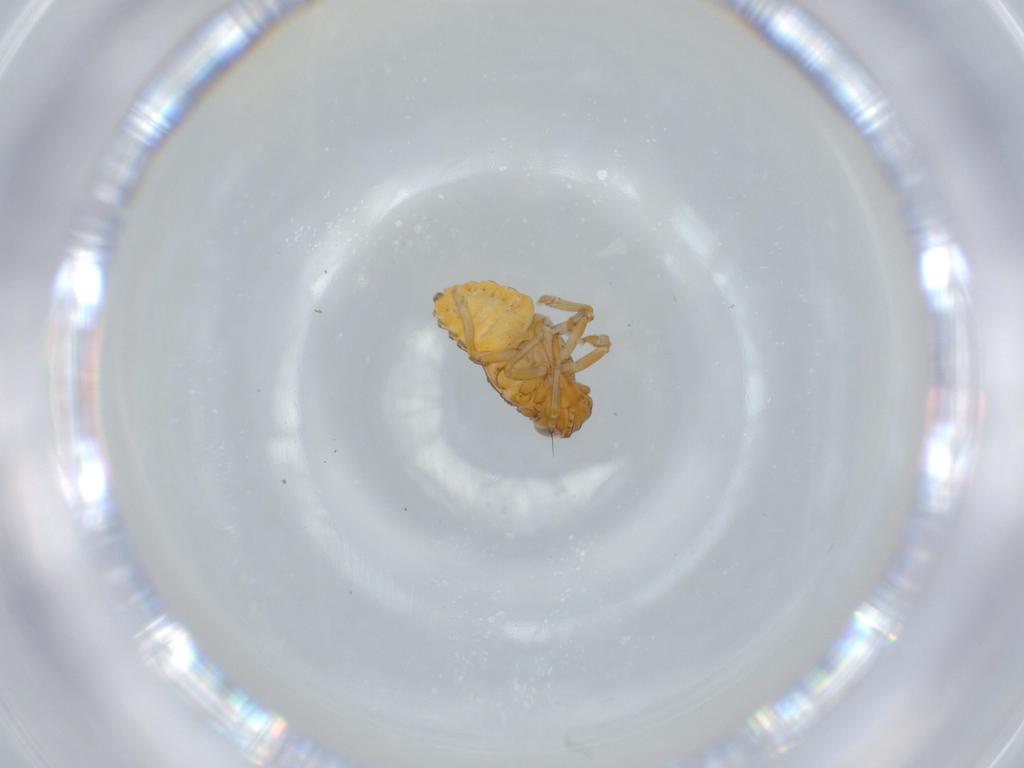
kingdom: Animalia
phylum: Arthropoda
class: Insecta
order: Hemiptera
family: Issidae
